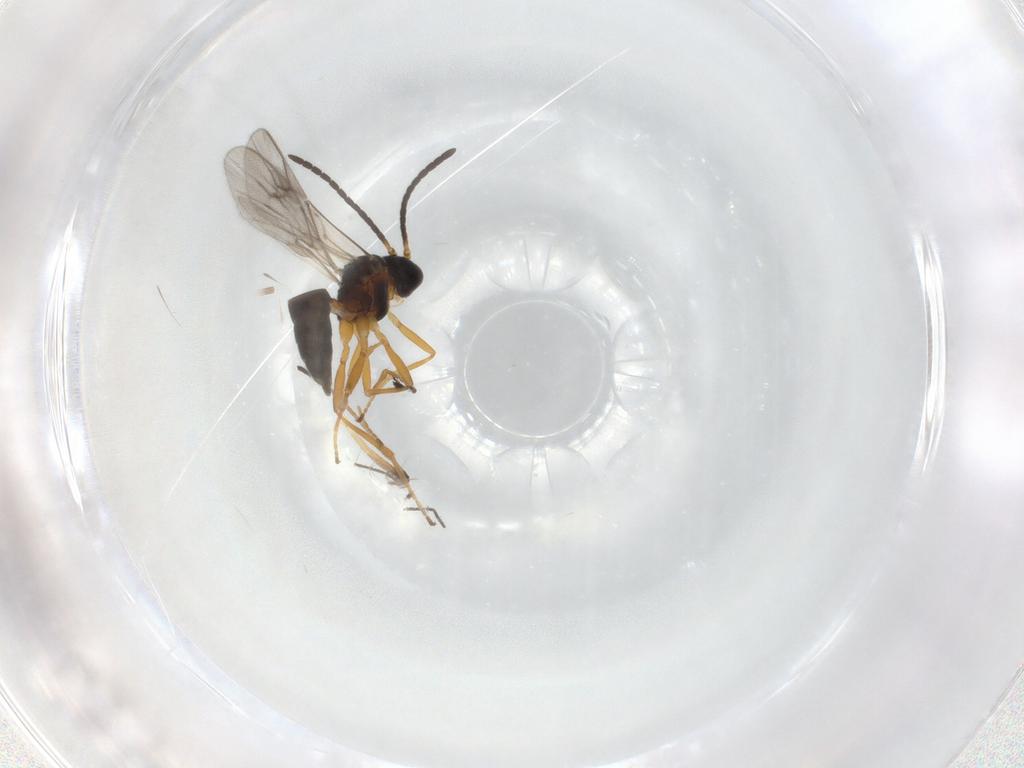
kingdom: Animalia
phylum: Arthropoda
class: Insecta
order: Hymenoptera
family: Braconidae
